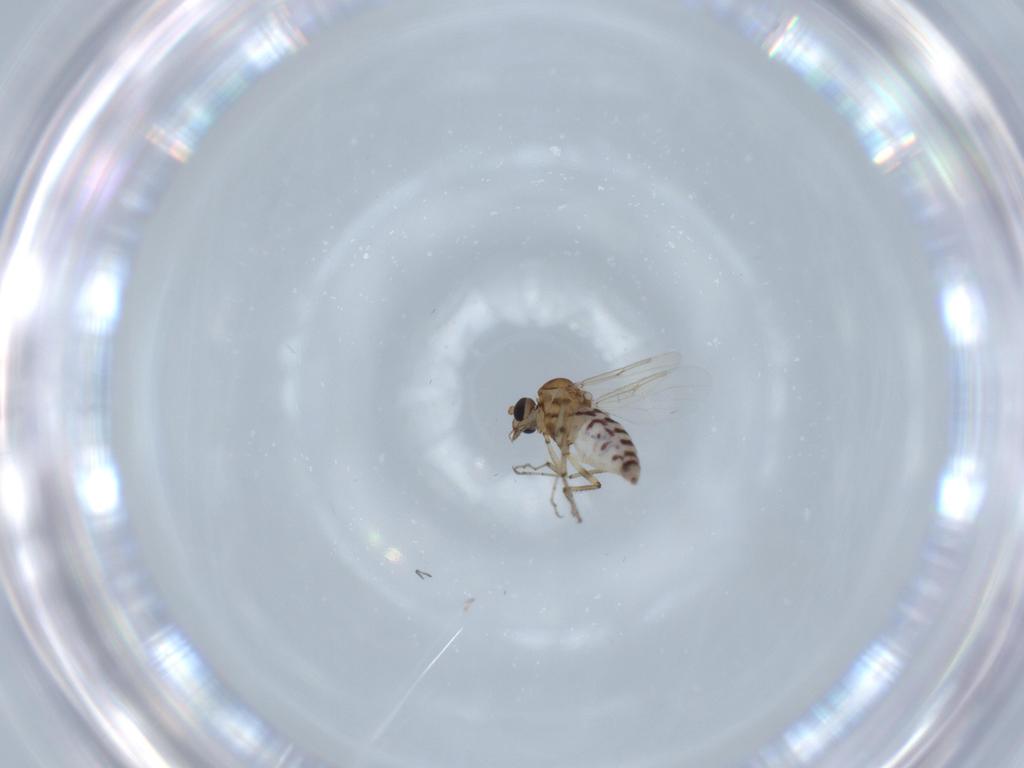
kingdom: Animalia
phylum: Arthropoda
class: Insecta
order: Diptera
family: Ceratopogonidae
